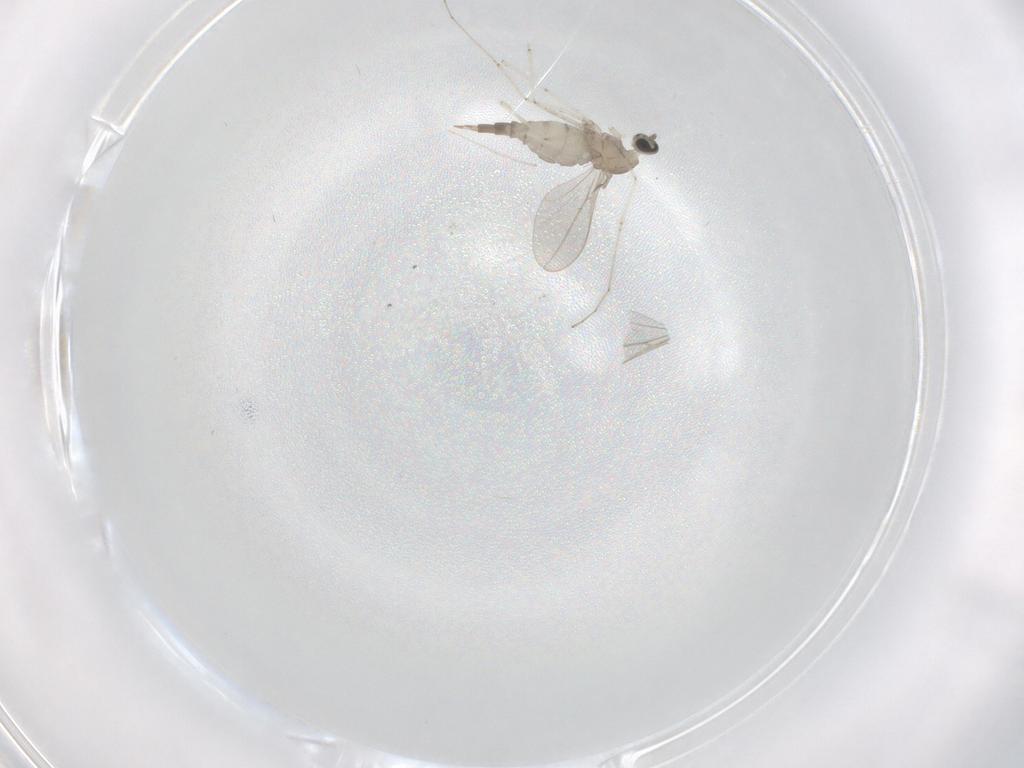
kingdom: Animalia
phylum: Arthropoda
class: Insecta
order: Diptera
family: Cecidomyiidae
